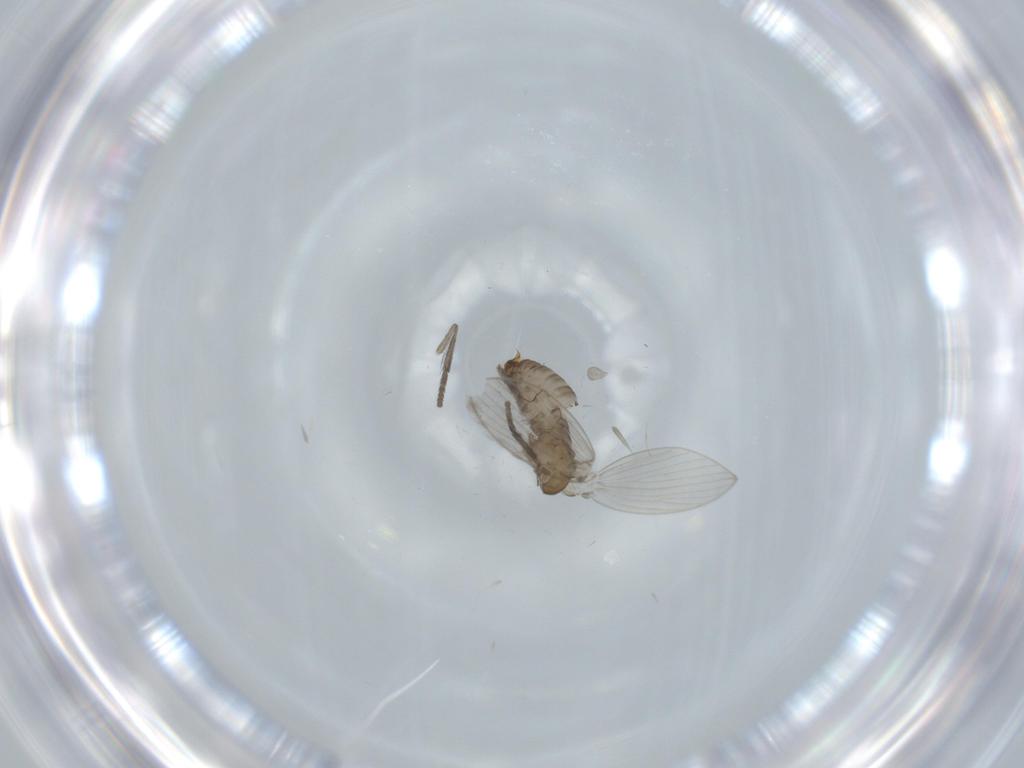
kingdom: Animalia
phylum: Arthropoda
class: Insecta
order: Diptera
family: Psychodidae
